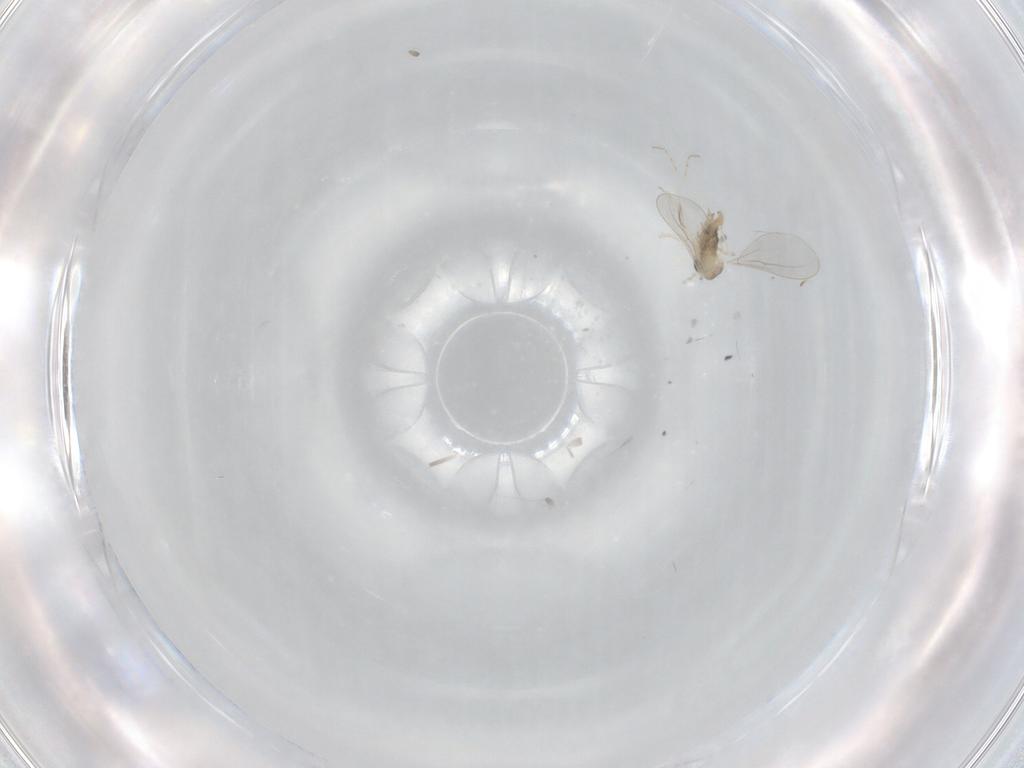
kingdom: Animalia
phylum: Arthropoda
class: Insecta
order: Diptera
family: Cecidomyiidae
